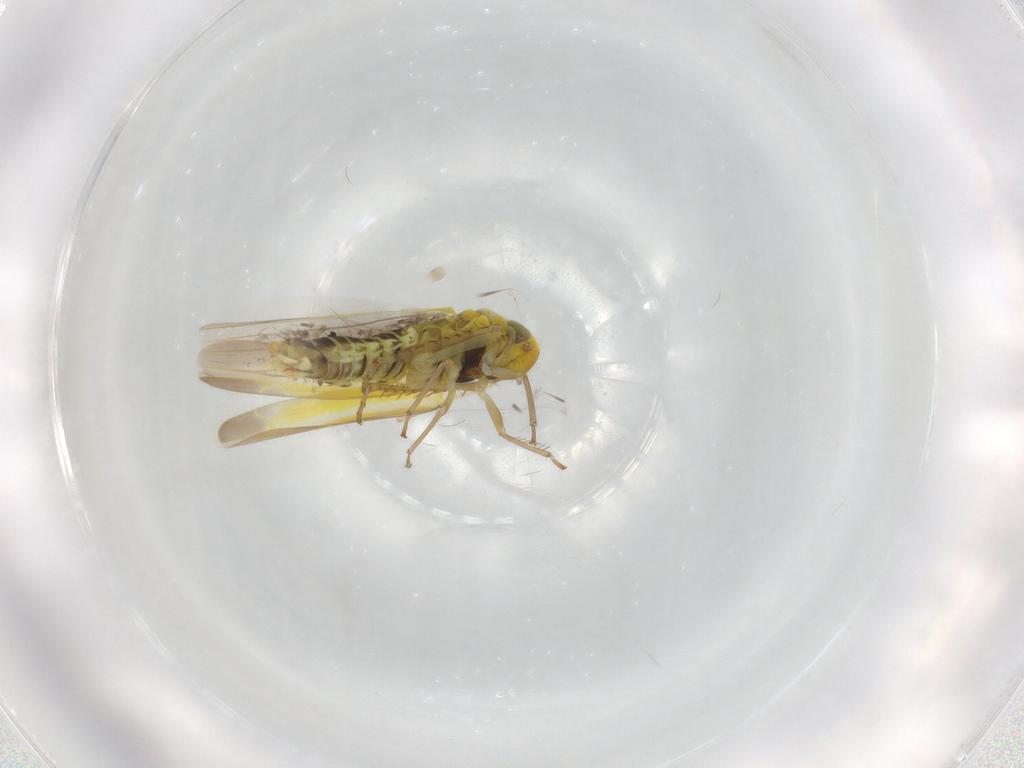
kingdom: Animalia
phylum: Arthropoda
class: Insecta
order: Hemiptera
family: Cicadellidae
